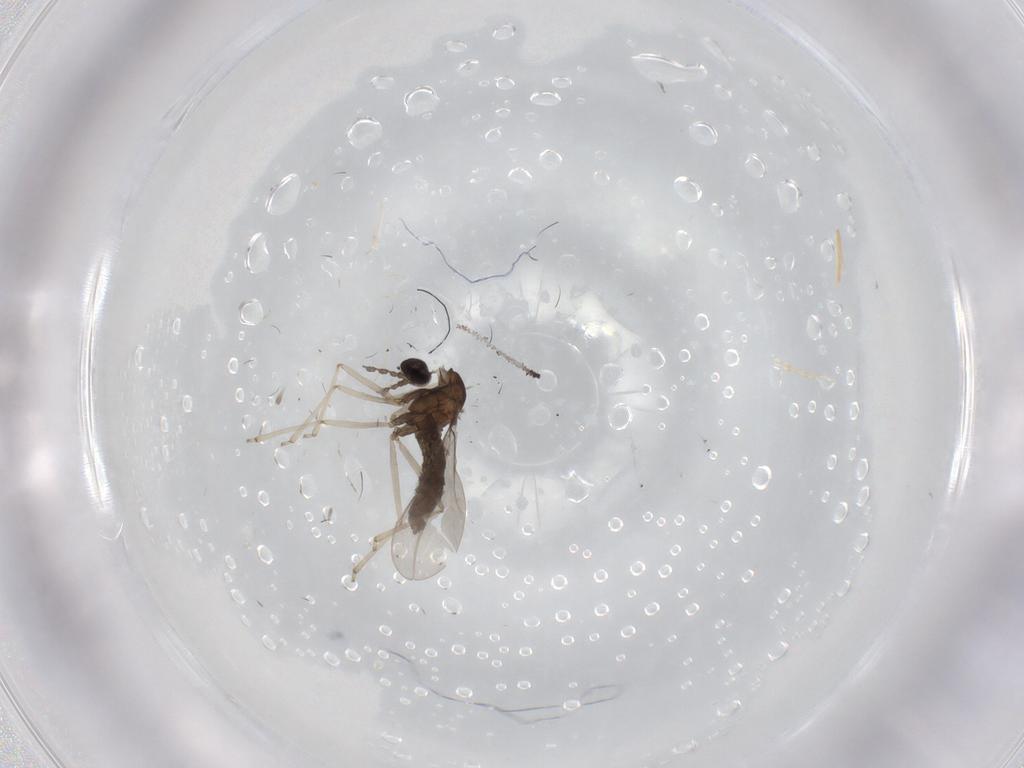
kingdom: Animalia
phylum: Arthropoda
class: Insecta
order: Diptera
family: Cecidomyiidae
